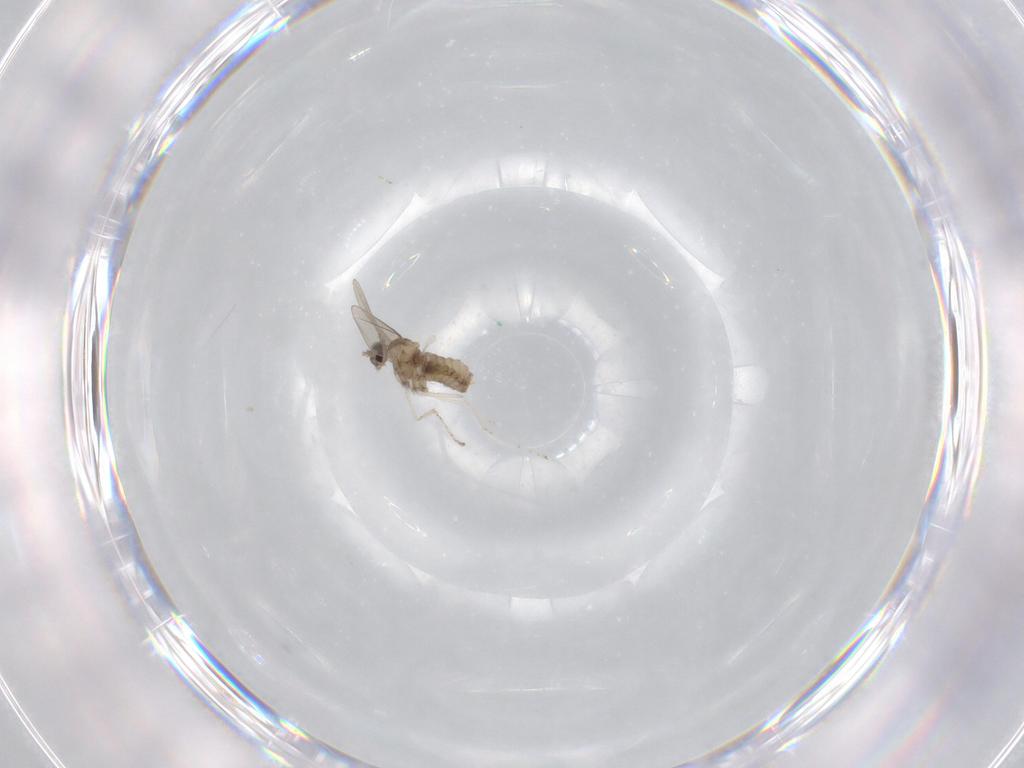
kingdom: Animalia
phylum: Arthropoda
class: Insecta
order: Diptera
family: Cecidomyiidae
